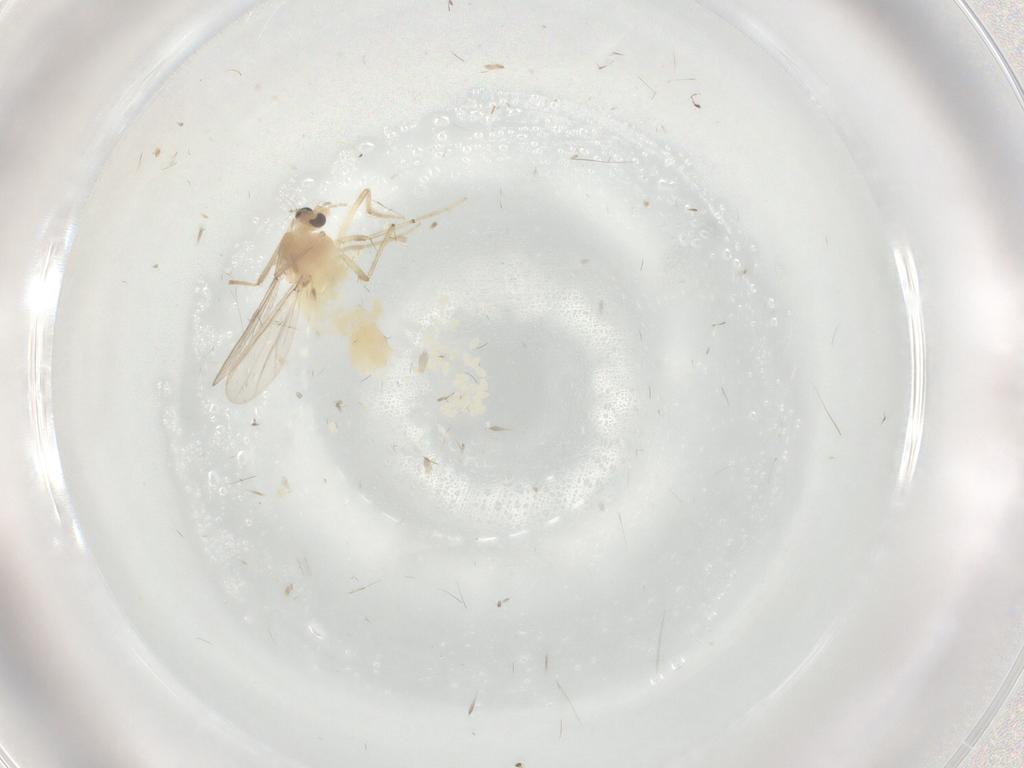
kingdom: Animalia
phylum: Arthropoda
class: Insecta
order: Diptera
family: Chironomidae
